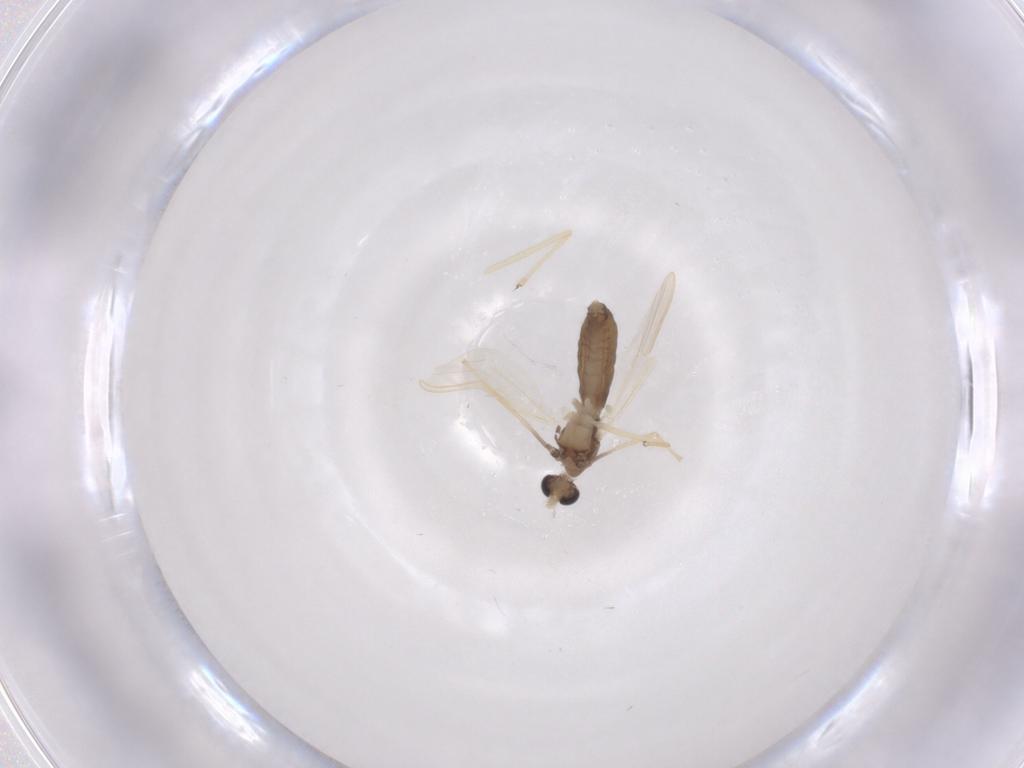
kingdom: Animalia
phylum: Arthropoda
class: Insecta
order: Diptera
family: Chironomidae
